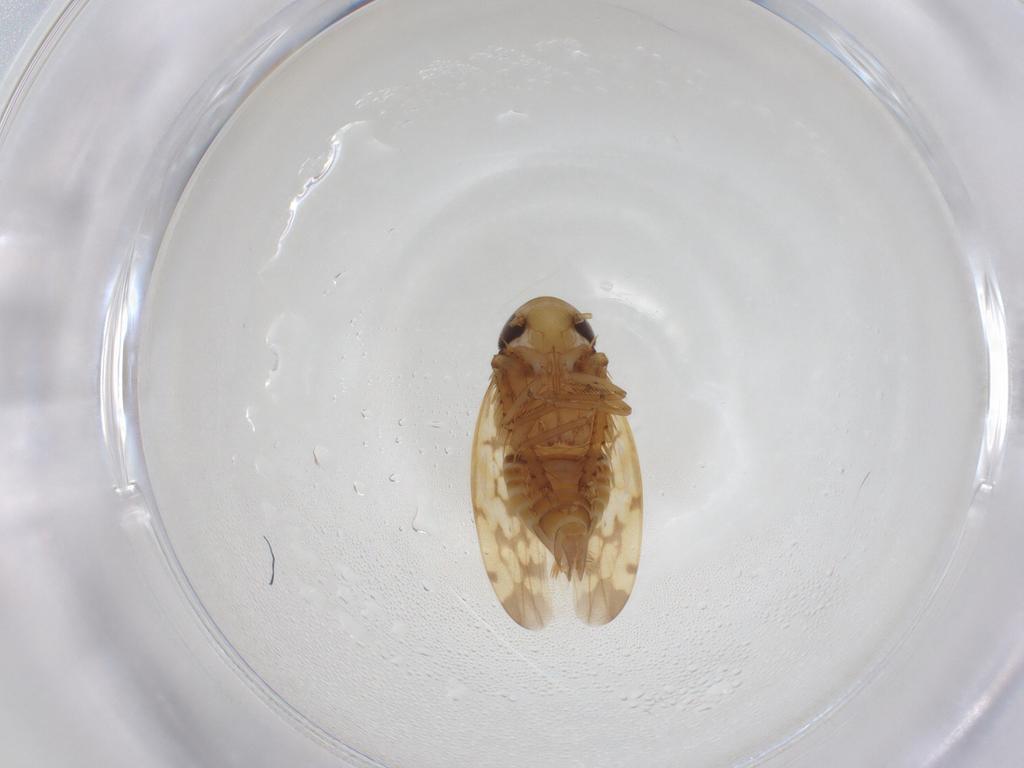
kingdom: Animalia
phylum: Arthropoda
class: Insecta
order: Hemiptera
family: Cicadellidae
